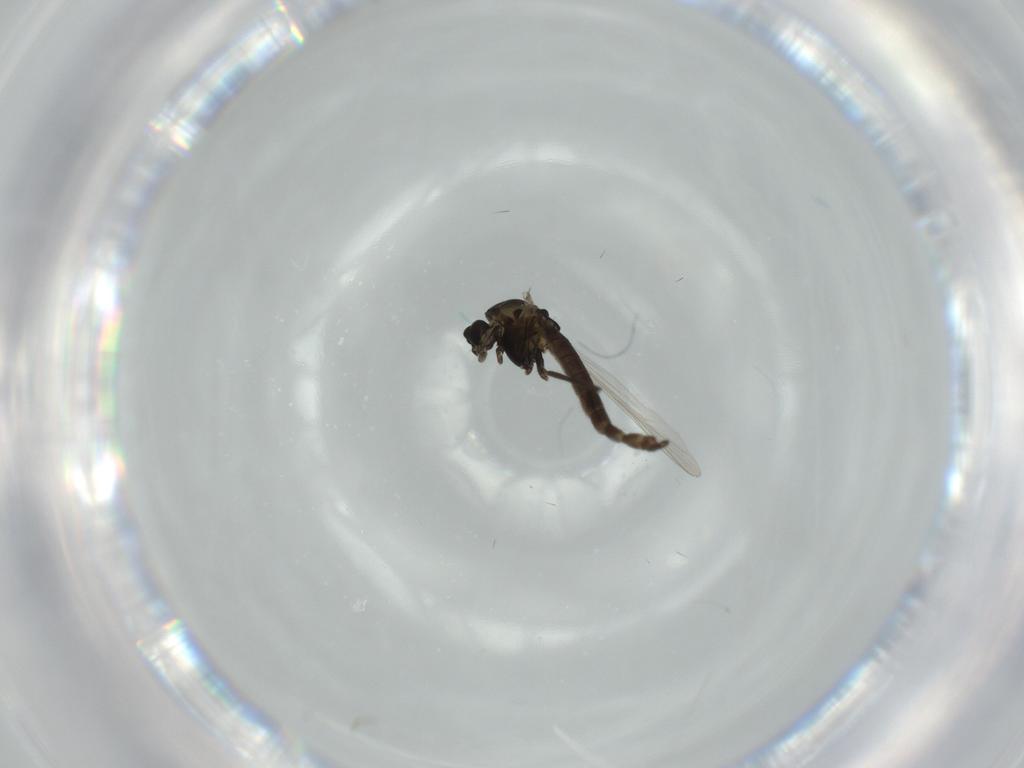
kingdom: Animalia
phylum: Arthropoda
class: Insecta
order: Diptera
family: Chironomidae
